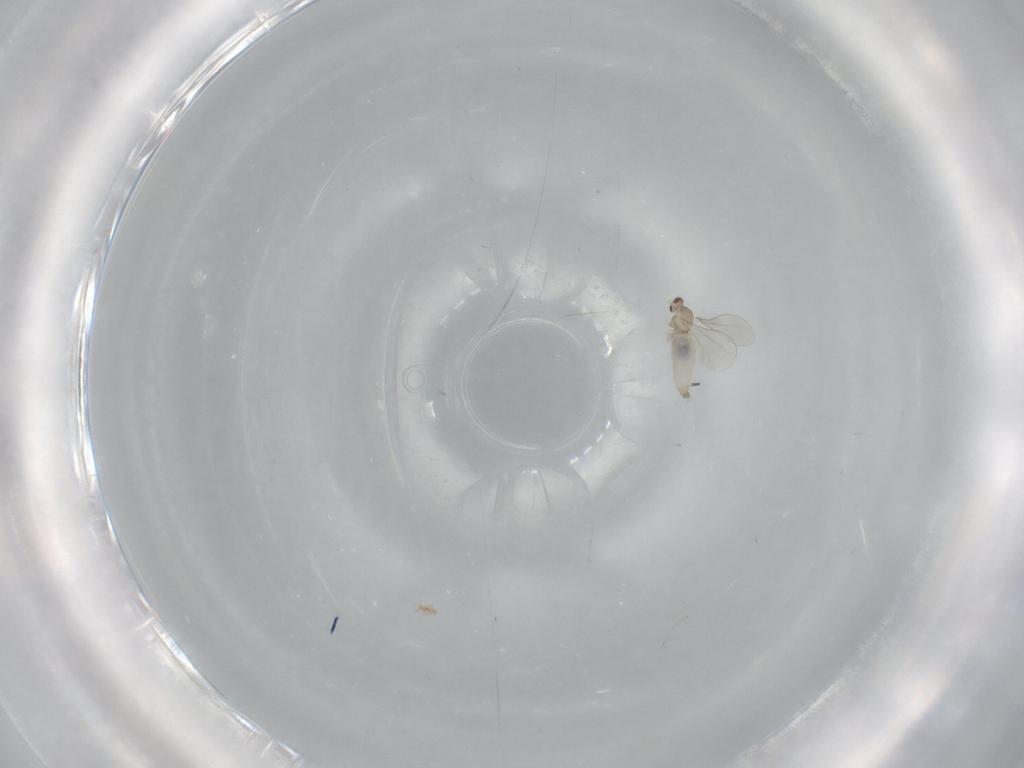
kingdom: Animalia
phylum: Arthropoda
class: Insecta
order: Diptera
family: Cecidomyiidae
